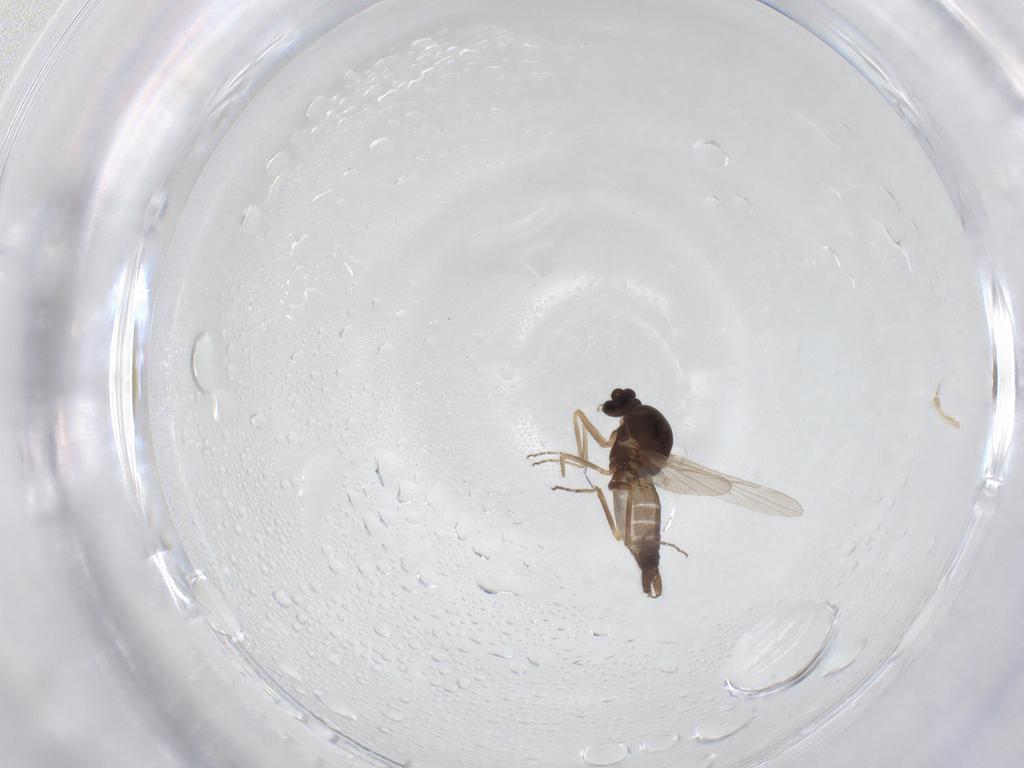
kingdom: Animalia
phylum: Arthropoda
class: Insecta
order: Diptera
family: Ceratopogonidae
